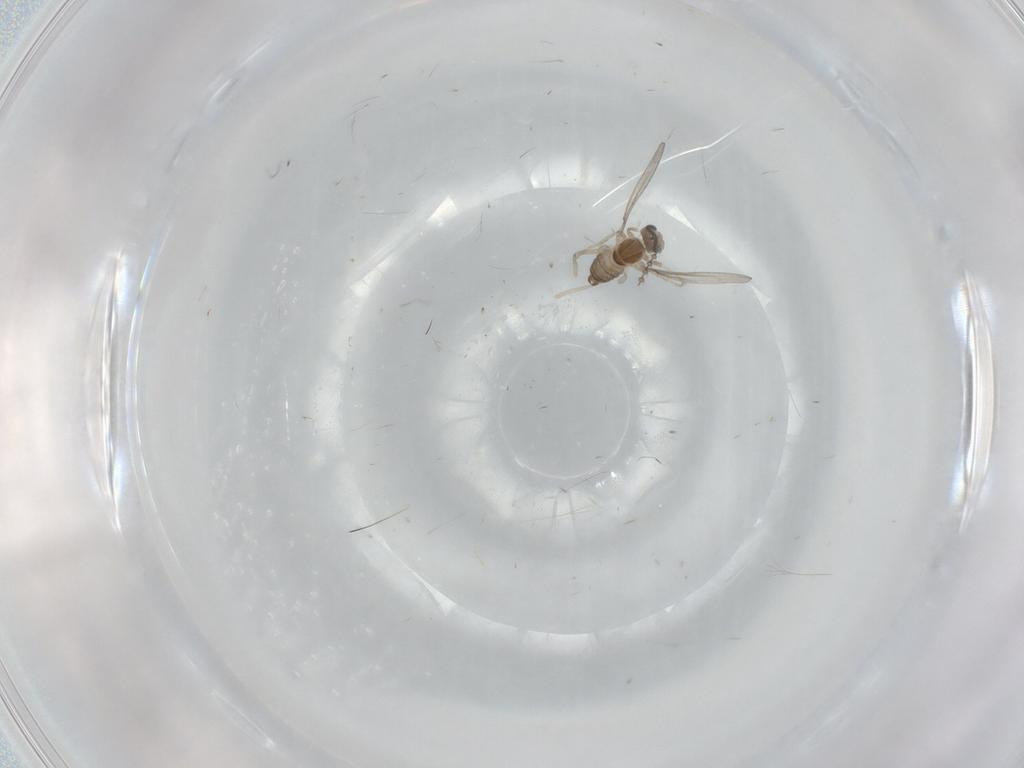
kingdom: Animalia
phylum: Arthropoda
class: Insecta
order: Diptera
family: Cecidomyiidae
